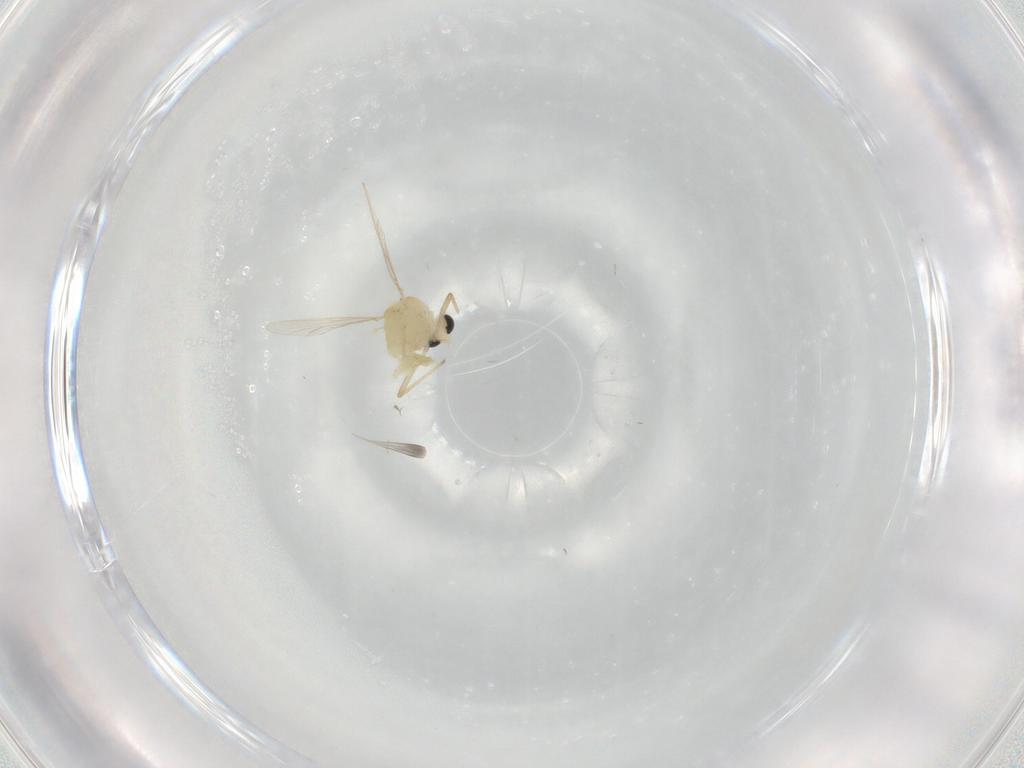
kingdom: Animalia
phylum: Arthropoda
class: Insecta
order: Diptera
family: Chironomidae
